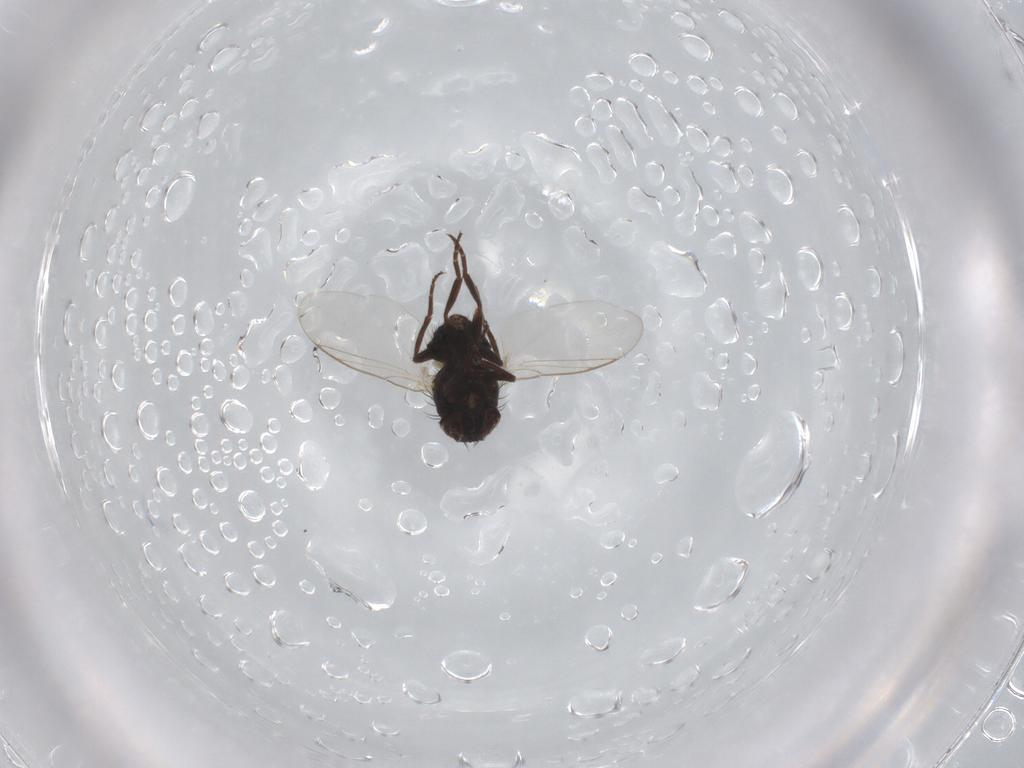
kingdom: Animalia
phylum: Arthropoda
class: Insecta
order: Diptera
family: Agromyzidae
